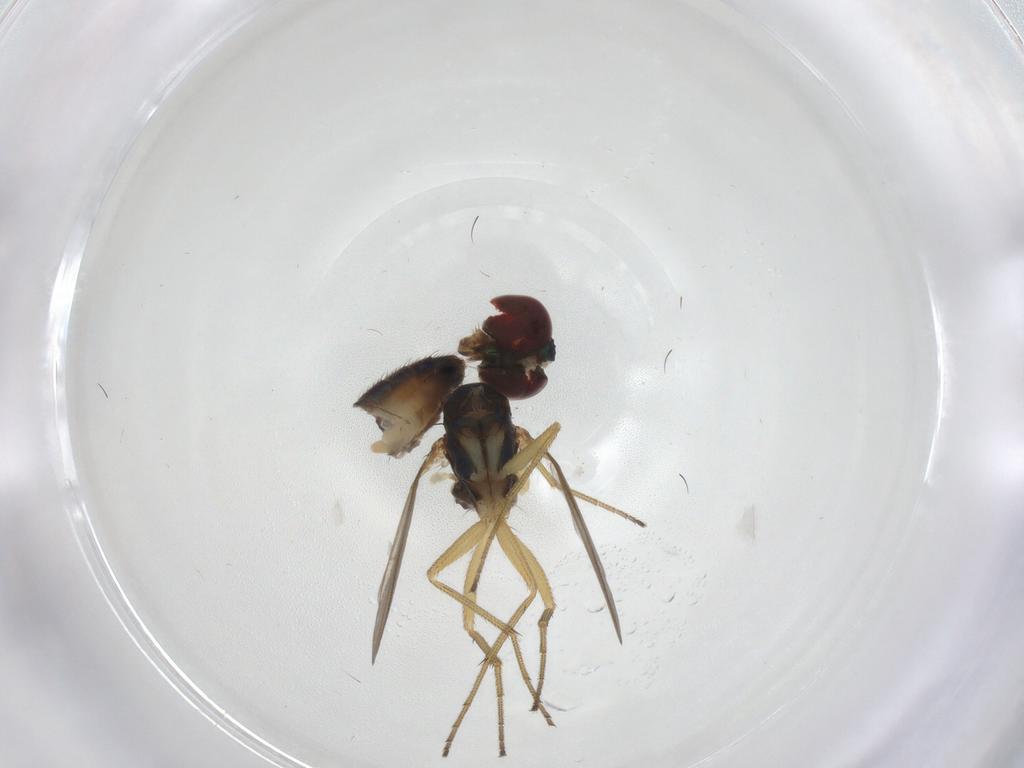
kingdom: Animalia
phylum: Arthropoda
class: Insecta
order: Diptera
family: Dolichopodidae
